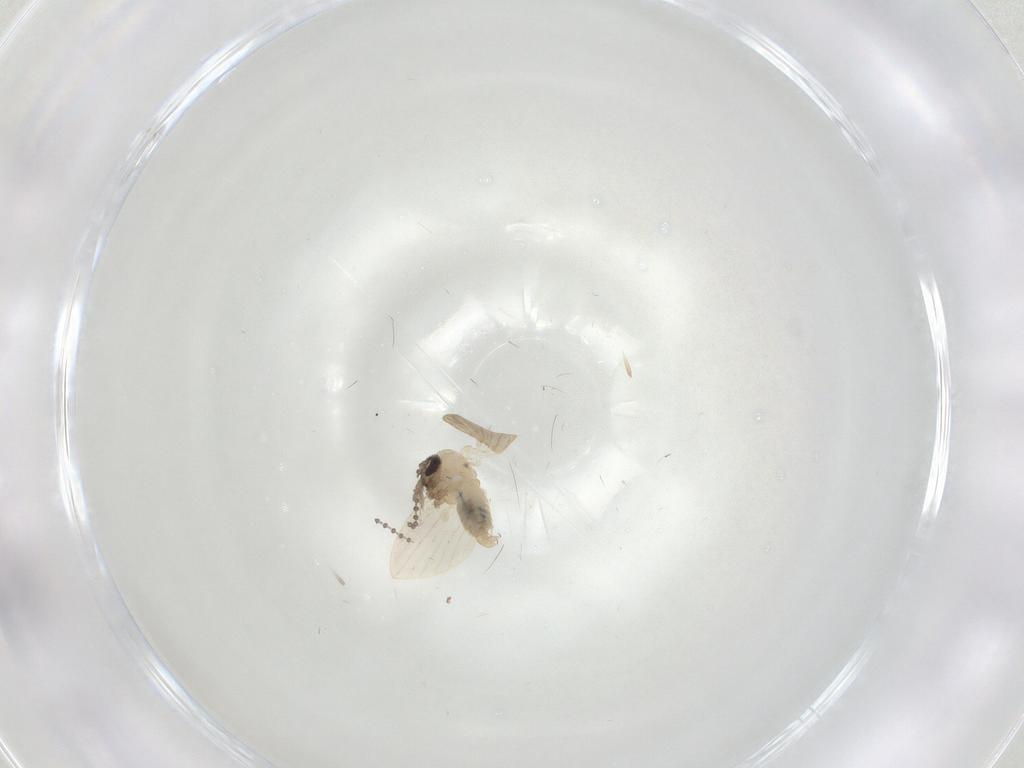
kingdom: Animalia
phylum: Arthropoda
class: Insecta
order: Diptera
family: Psychodidae
